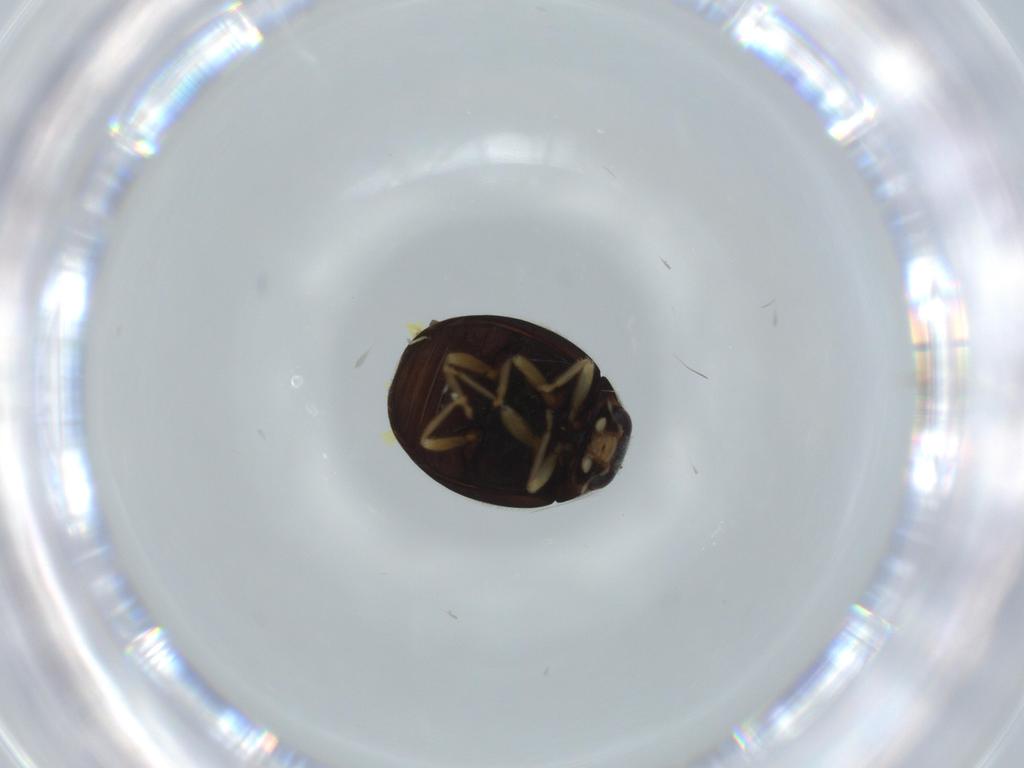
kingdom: Animalia
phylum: Arthropoda
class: Insecta
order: Coleoptera
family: Coccinellidae
